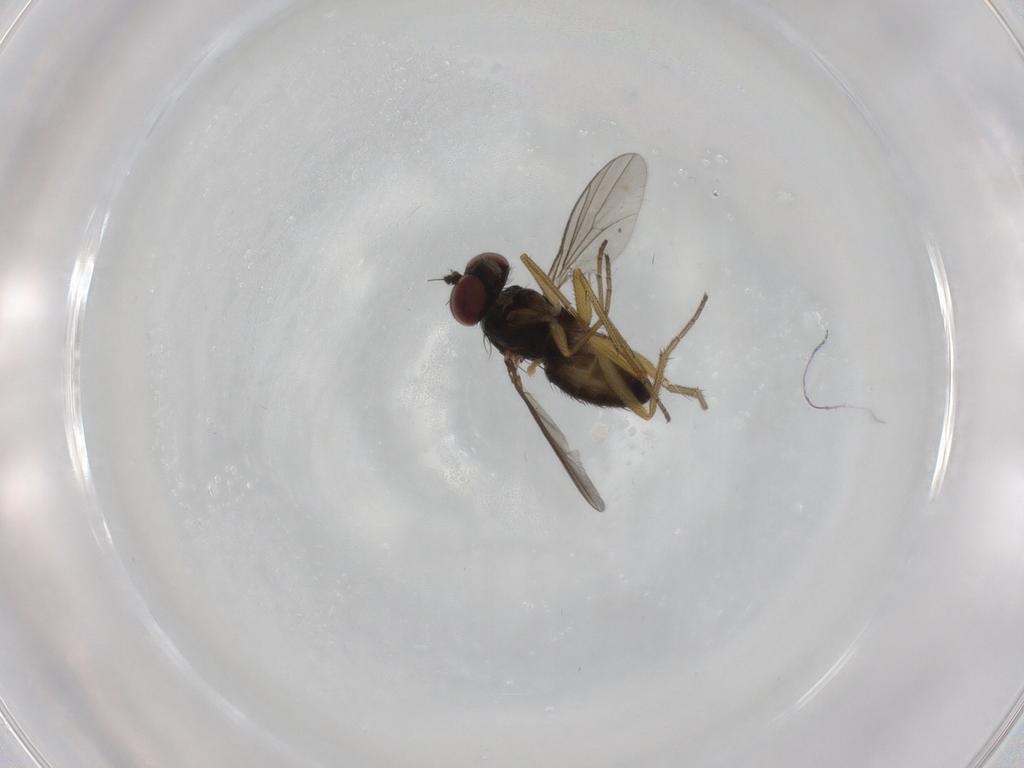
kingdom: Animalia
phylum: Arthropoda
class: Insecta
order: Diptera
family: Dolichopodidae
